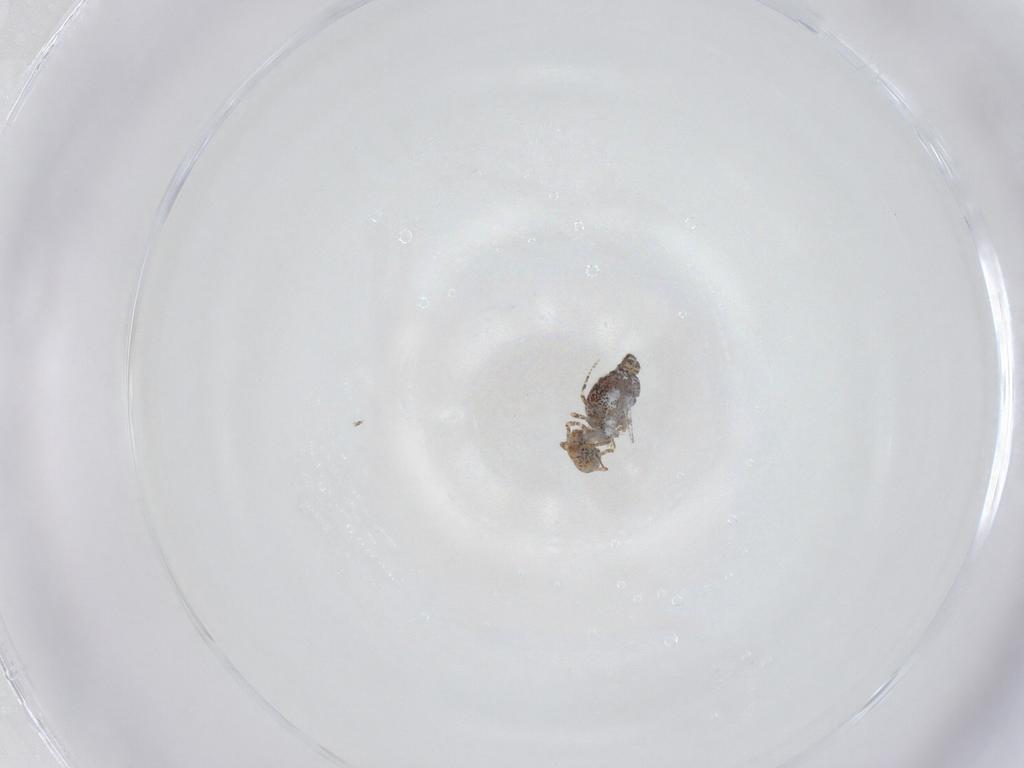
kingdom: Animalia
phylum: Arthropoda
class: Collembola
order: Symphypleona
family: Bourletiellidae
